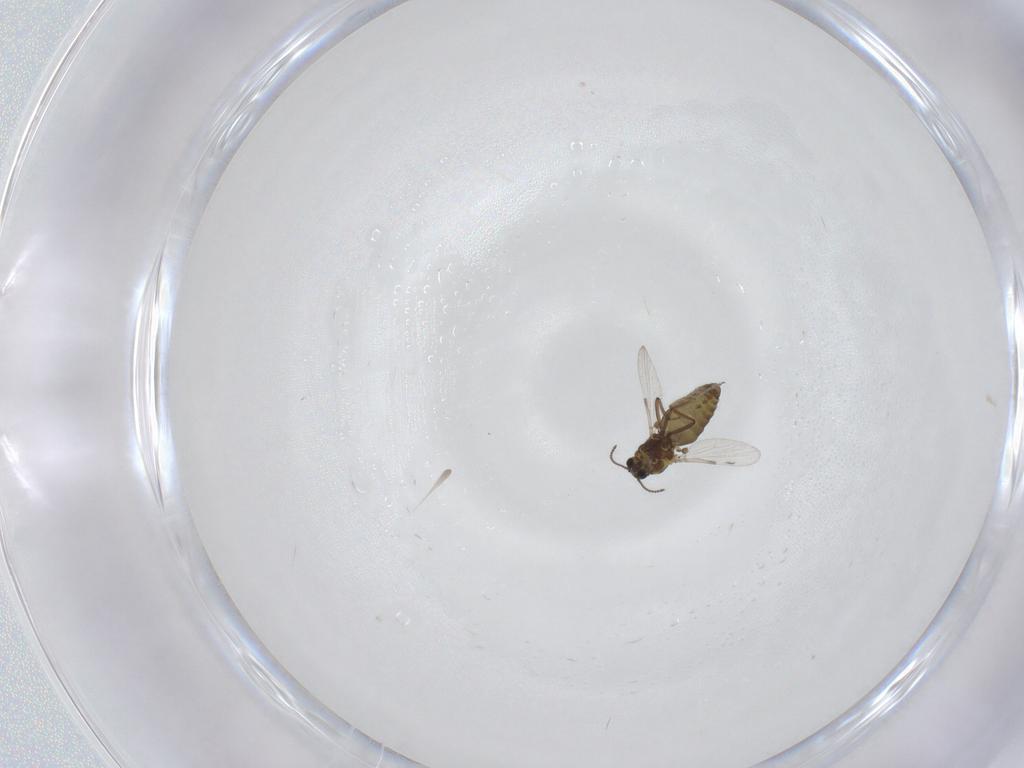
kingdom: Animalia
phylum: Arthropoda
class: Insecta
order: Diptera
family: Ceratopogonidae
